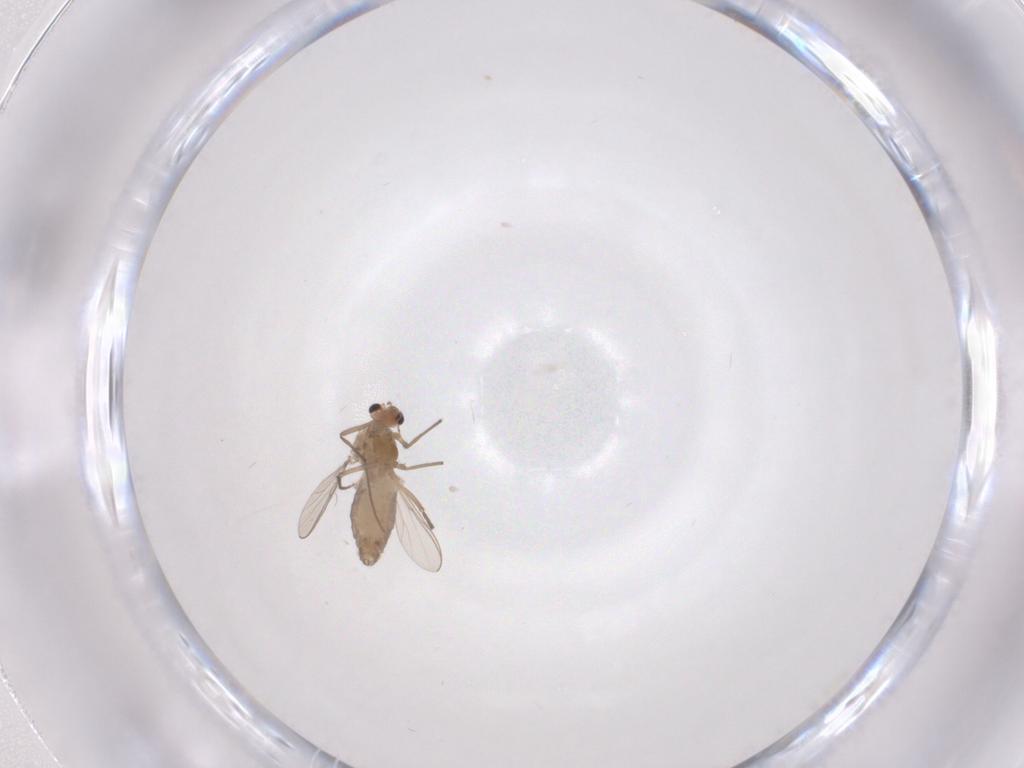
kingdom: Animalia
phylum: Arthropoda
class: Insecta
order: Diptera
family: Chironomidae
